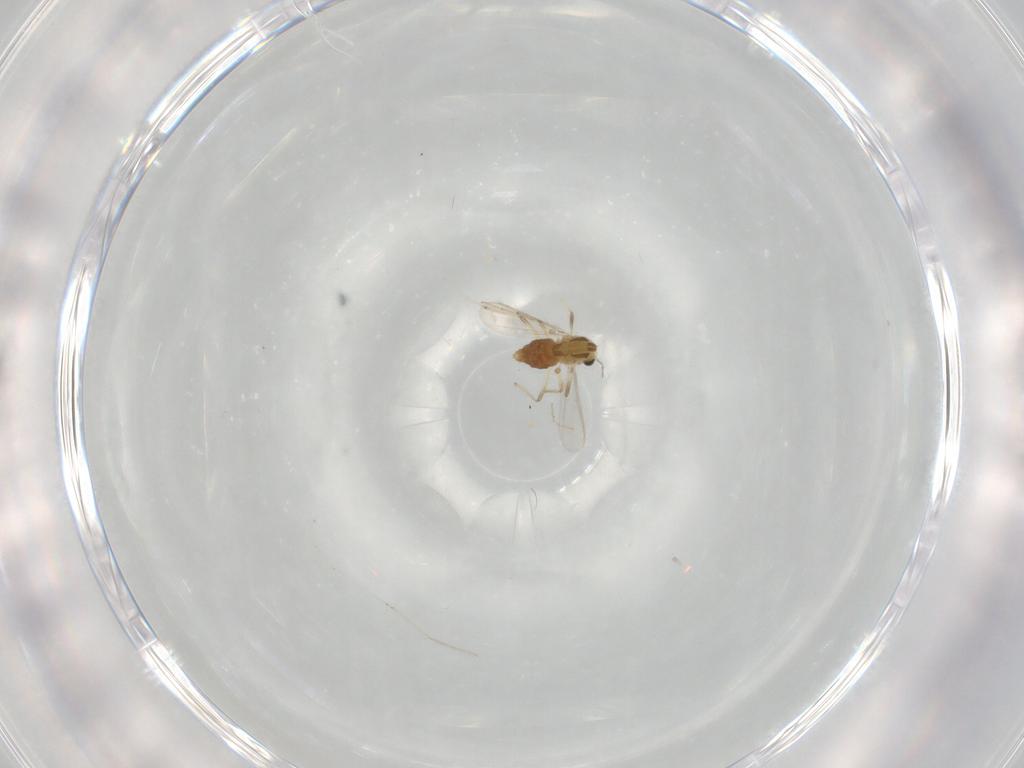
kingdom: Animalia
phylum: Arthropoda
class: Insecta
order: Diptera
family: Chironomidae
